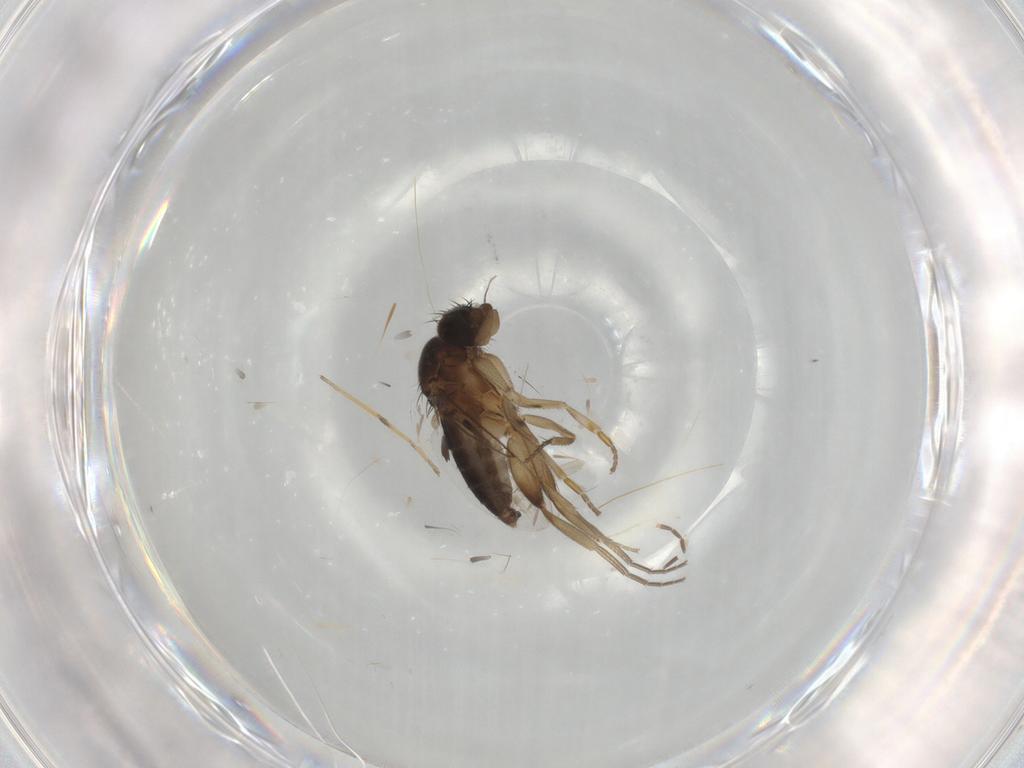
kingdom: Animalia
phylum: Arthropoda
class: Insecta
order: Diptera
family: Phoridae
